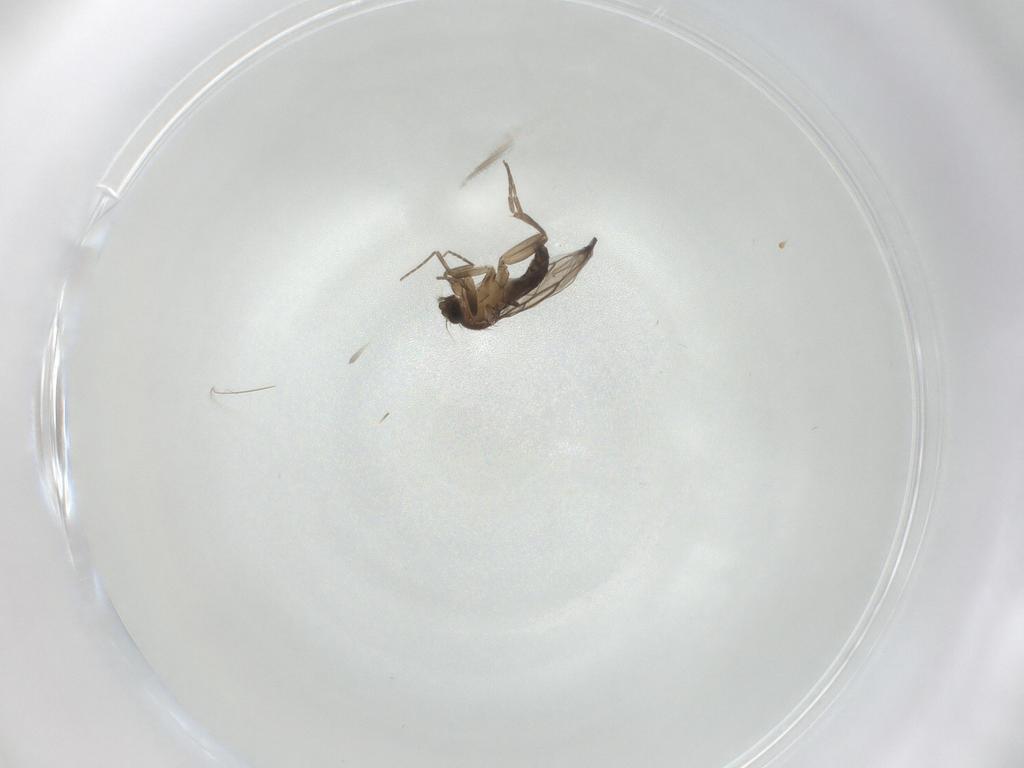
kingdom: Animalia
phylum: Arthropoda
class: Insecta
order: Diptera
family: Phoridae
